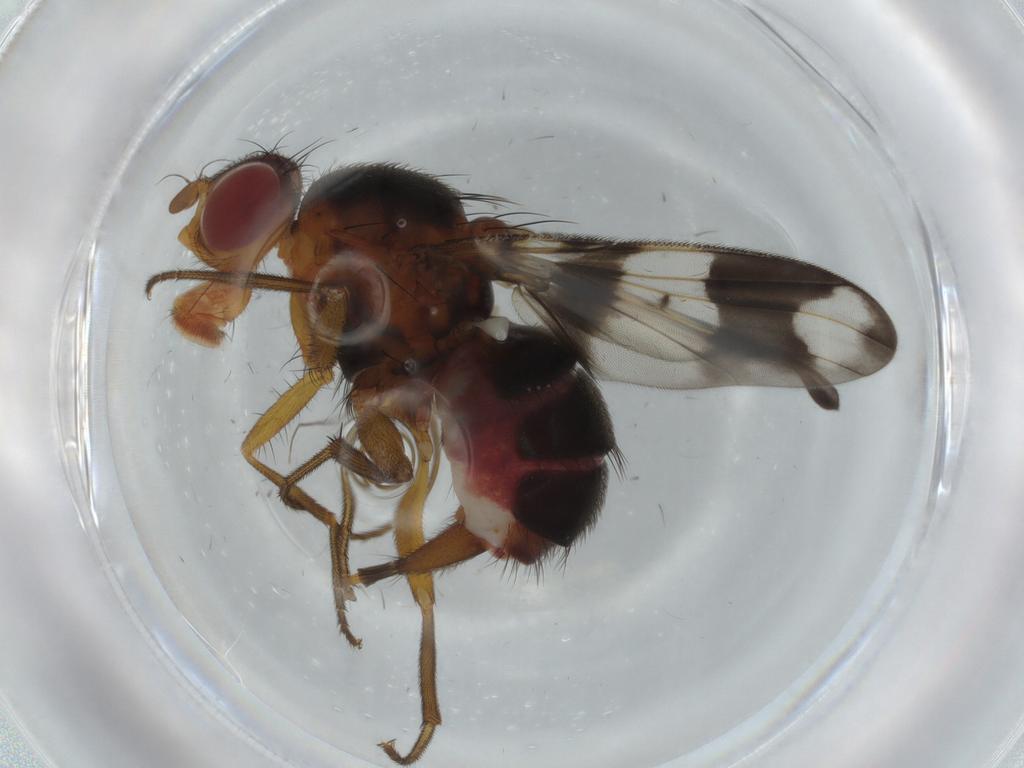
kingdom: Animalia
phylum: Arthropoda
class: Insecta
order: Diptera
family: Richardiidae
